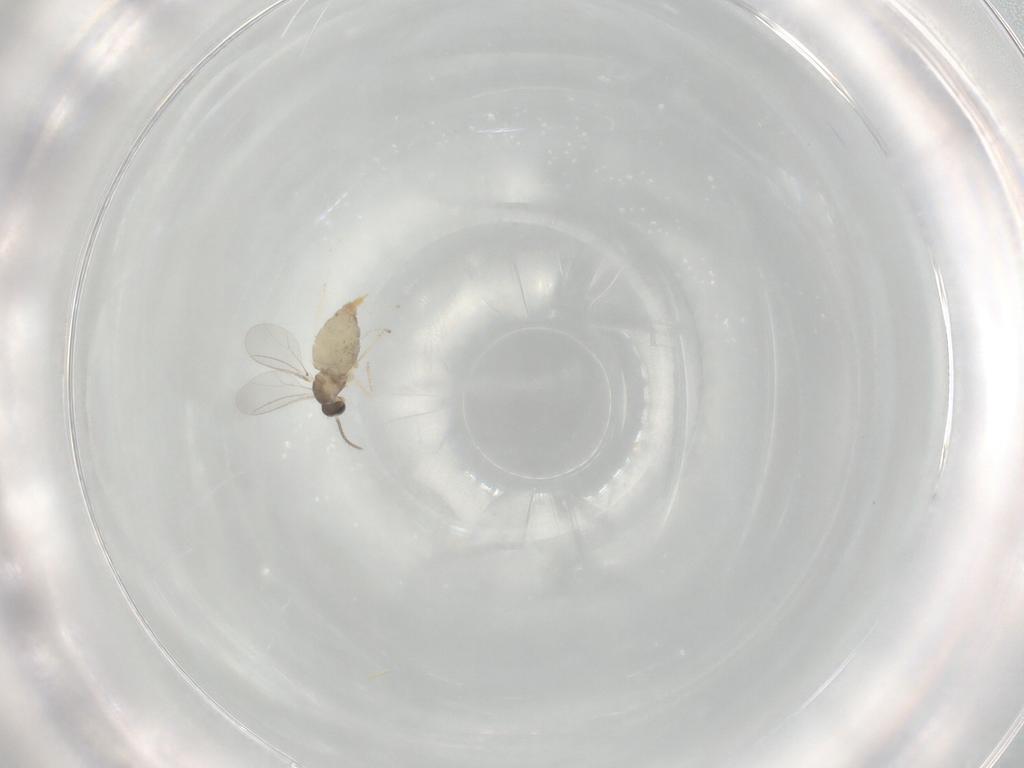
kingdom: Animalia
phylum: Arthropoda
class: Insecta
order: Diptera
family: Cecidomyiidae
